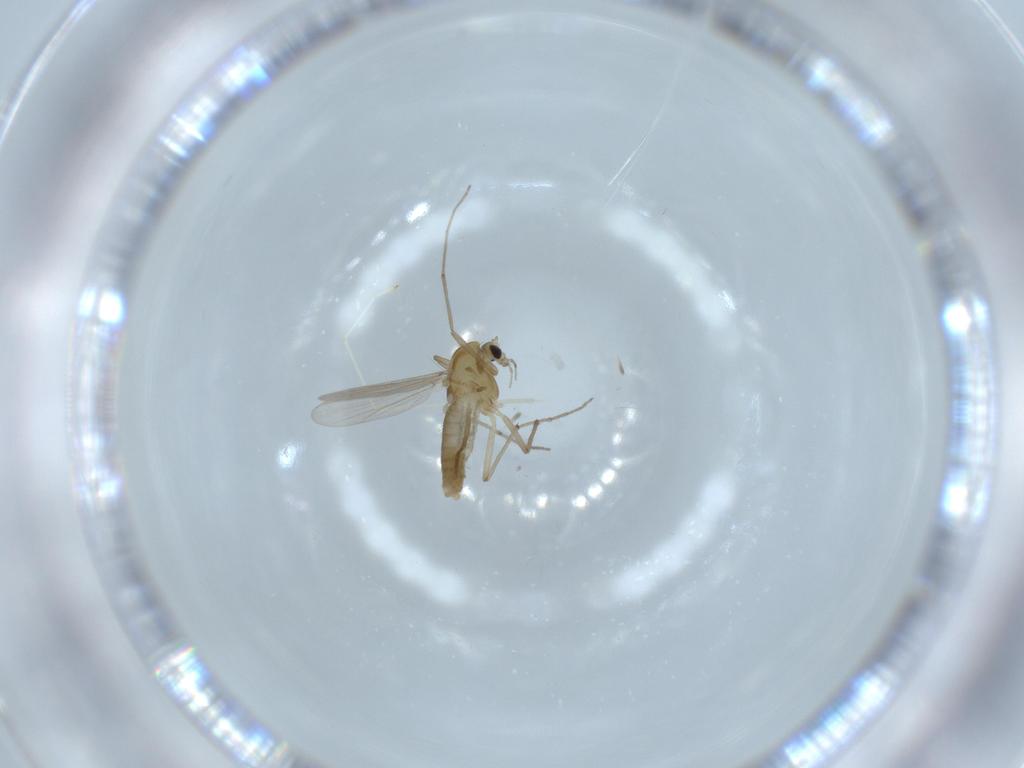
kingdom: Animalia
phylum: Arthropoda
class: Insecta
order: Diptera
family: Chironomidae
